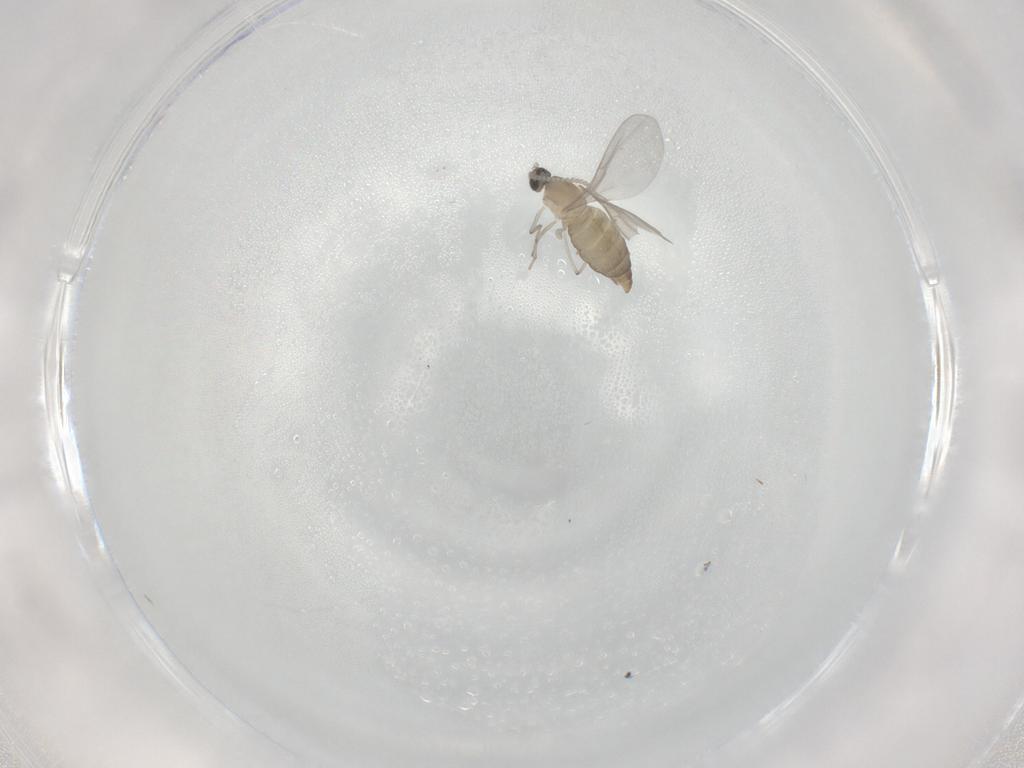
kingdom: Animalia
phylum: Arthropoda
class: Insecta
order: Diptera
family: Cecidomyiidae
